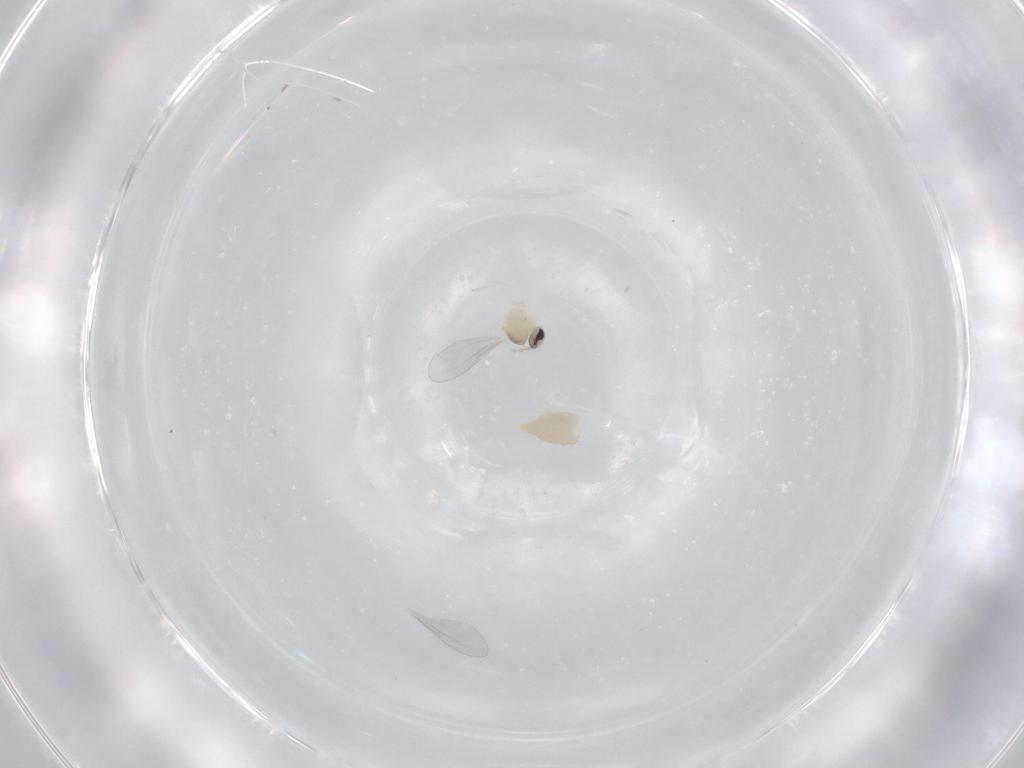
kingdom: Animalia
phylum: Arthropoda
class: Insecta
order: Diptera
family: Cecidomyiidae
